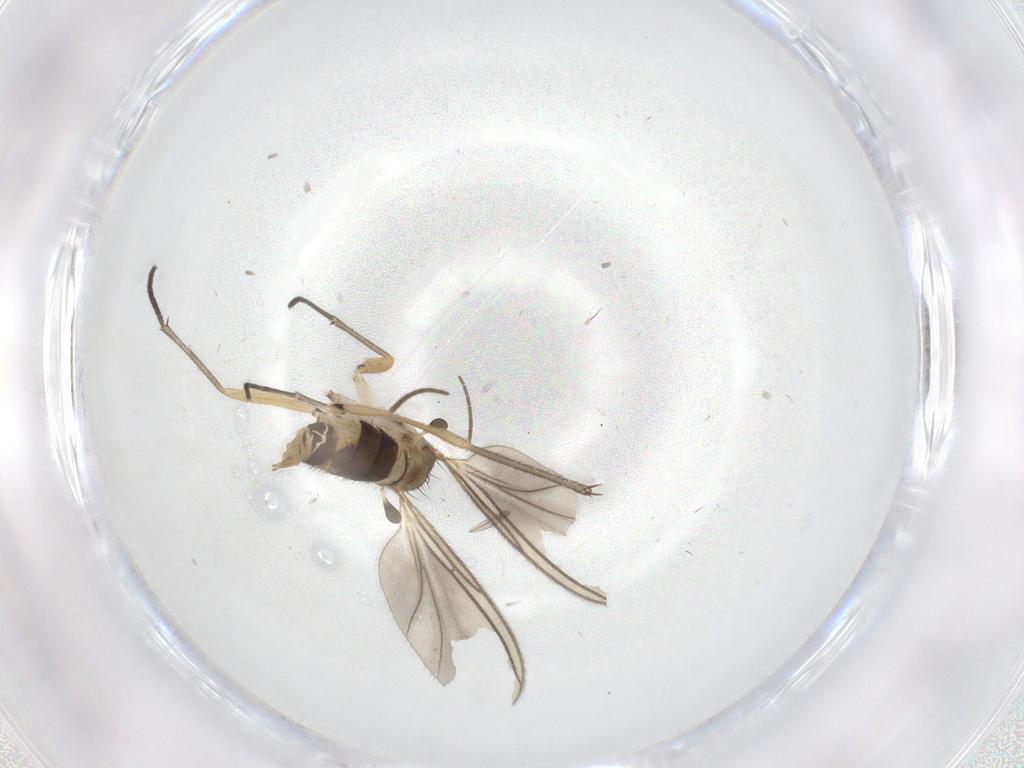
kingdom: Animalia
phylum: Arthropoda
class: Insecta
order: Diptera
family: Sciaridae
